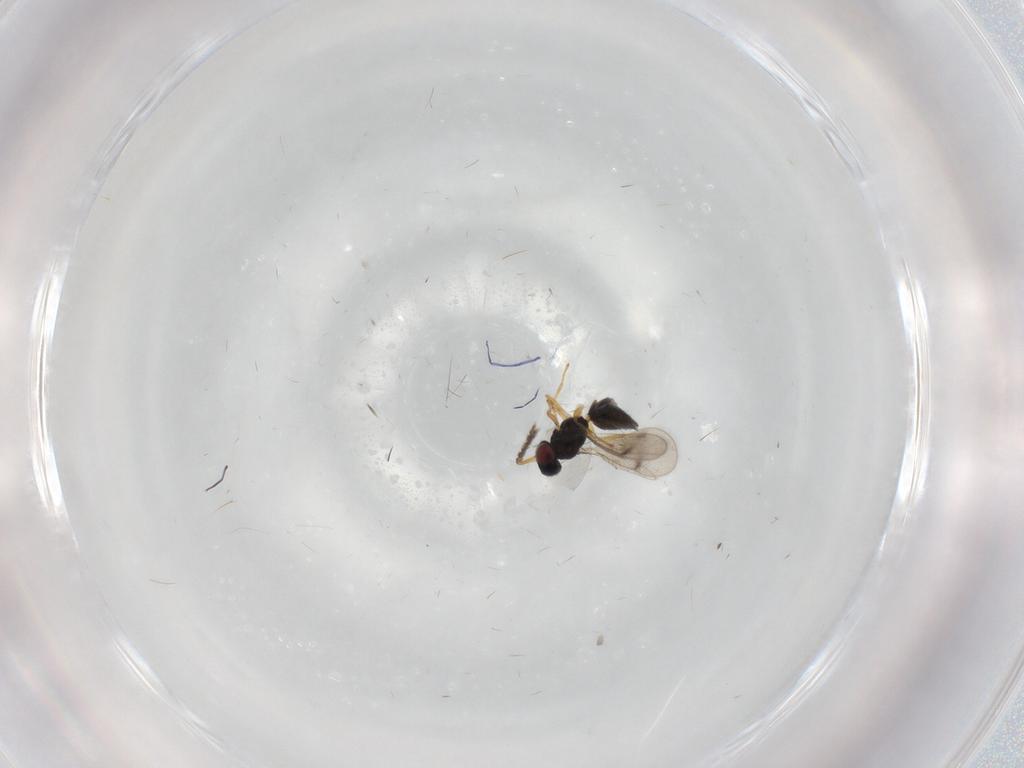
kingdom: Animalia
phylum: Arthropoda
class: Insecta
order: Hymenoptera
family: Eulophidae
